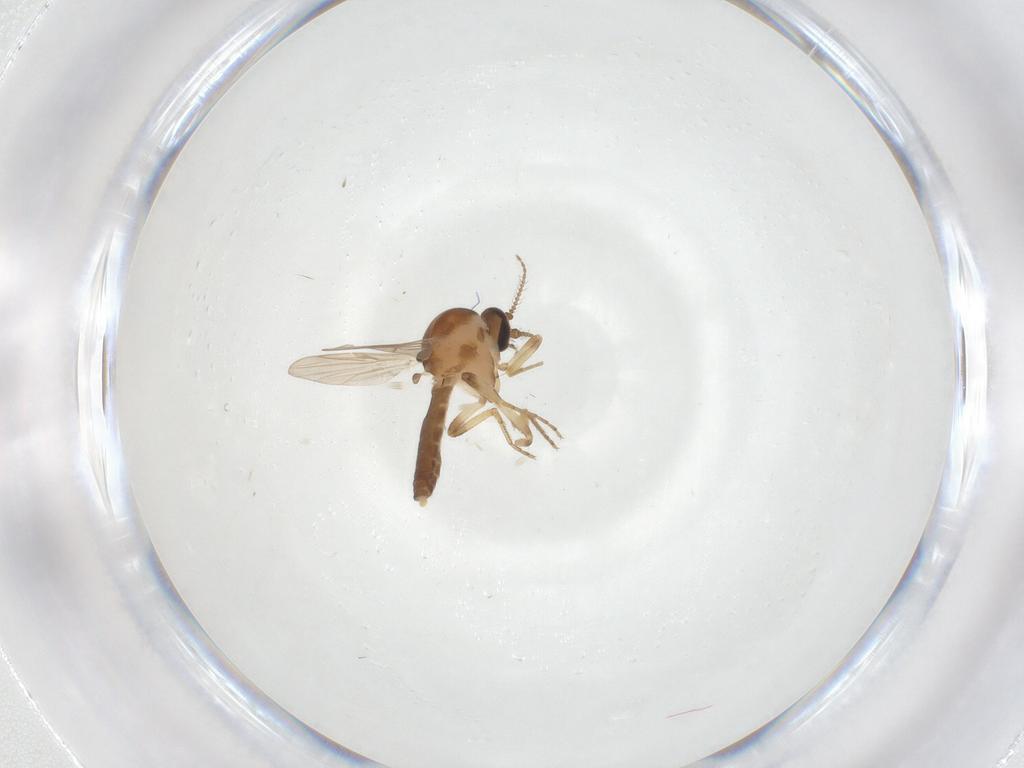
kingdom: Animalia
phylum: Arthropoda
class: Insecta
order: Diptera
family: Ceratopogonidae
